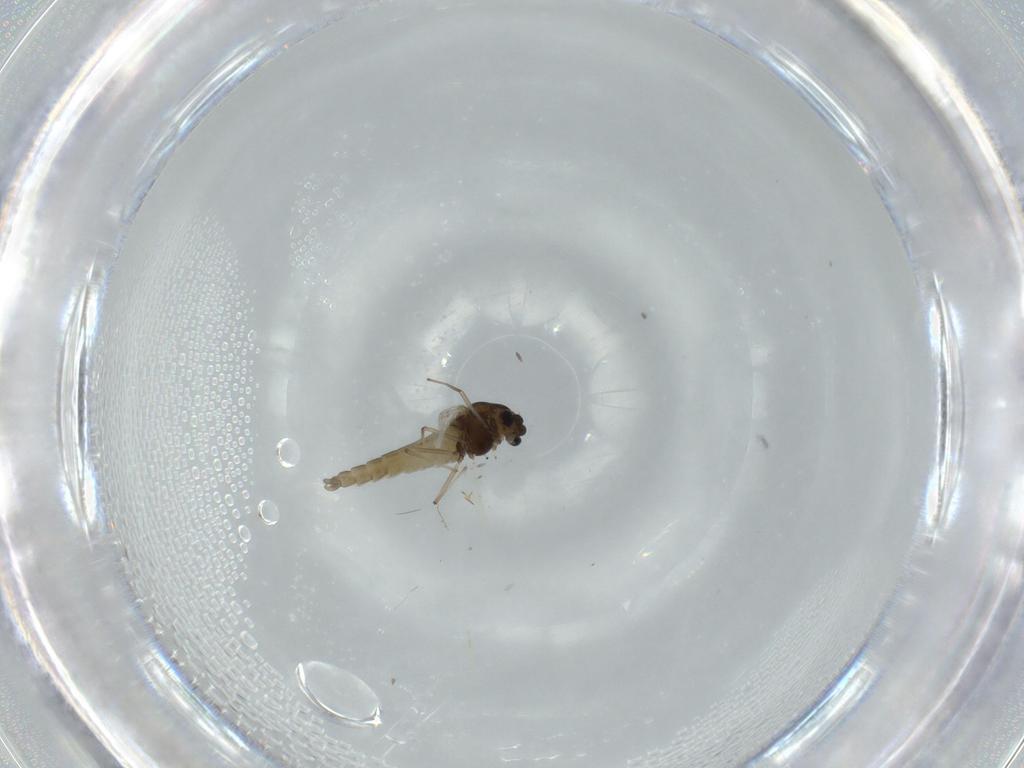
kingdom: Animalia
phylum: Arthropoda
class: Insecta
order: Diptera
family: Chironomidae
